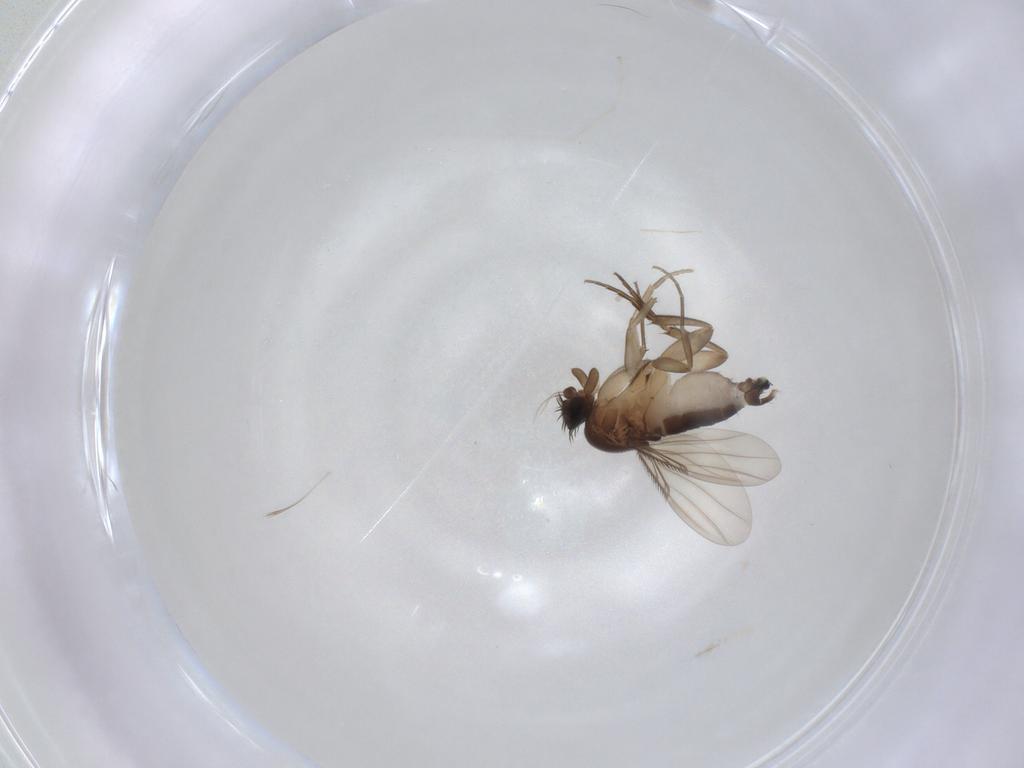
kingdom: Animalia
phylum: Arthropoda
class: Insecta
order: Diptera
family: Phoridae
